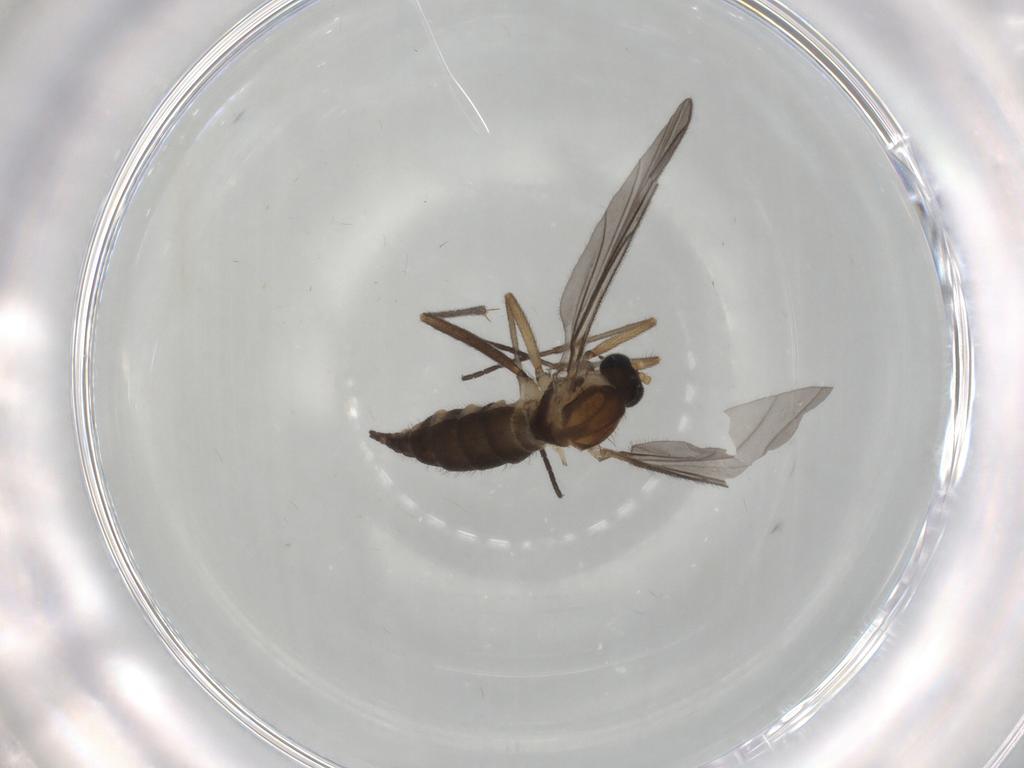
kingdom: Animalia
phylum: Arthropoda
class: Insecta
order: Diptera
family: Sciaridae
